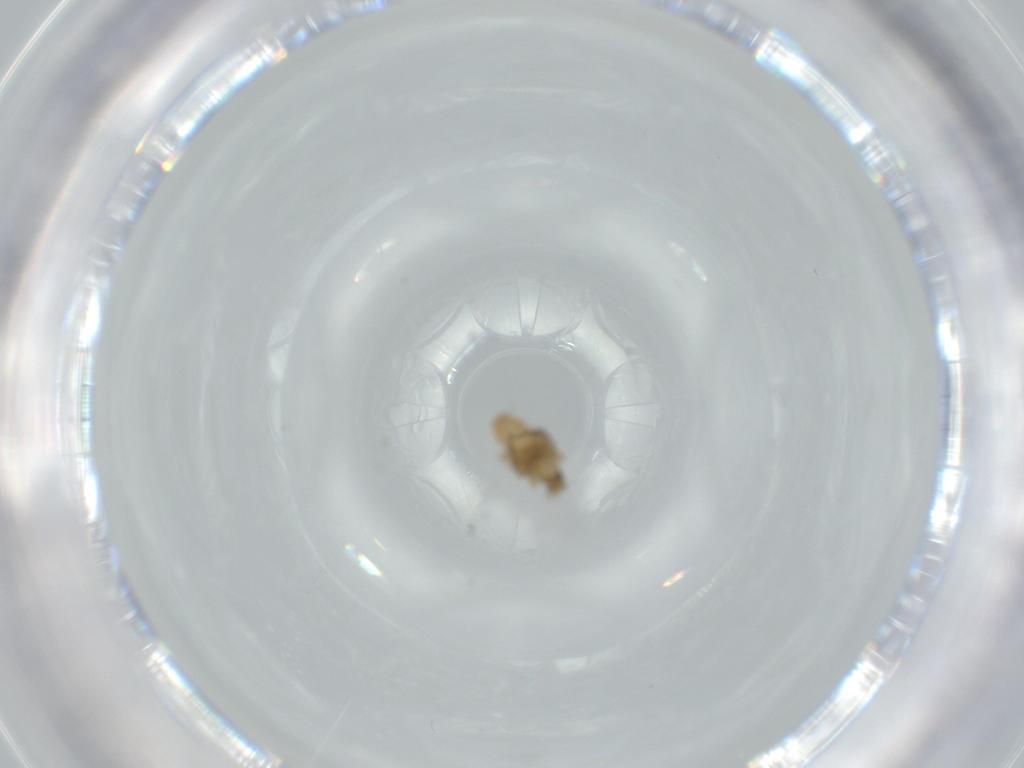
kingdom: Animalia
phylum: Arthropoda
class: Insecta
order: Diptera
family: Phoridae
